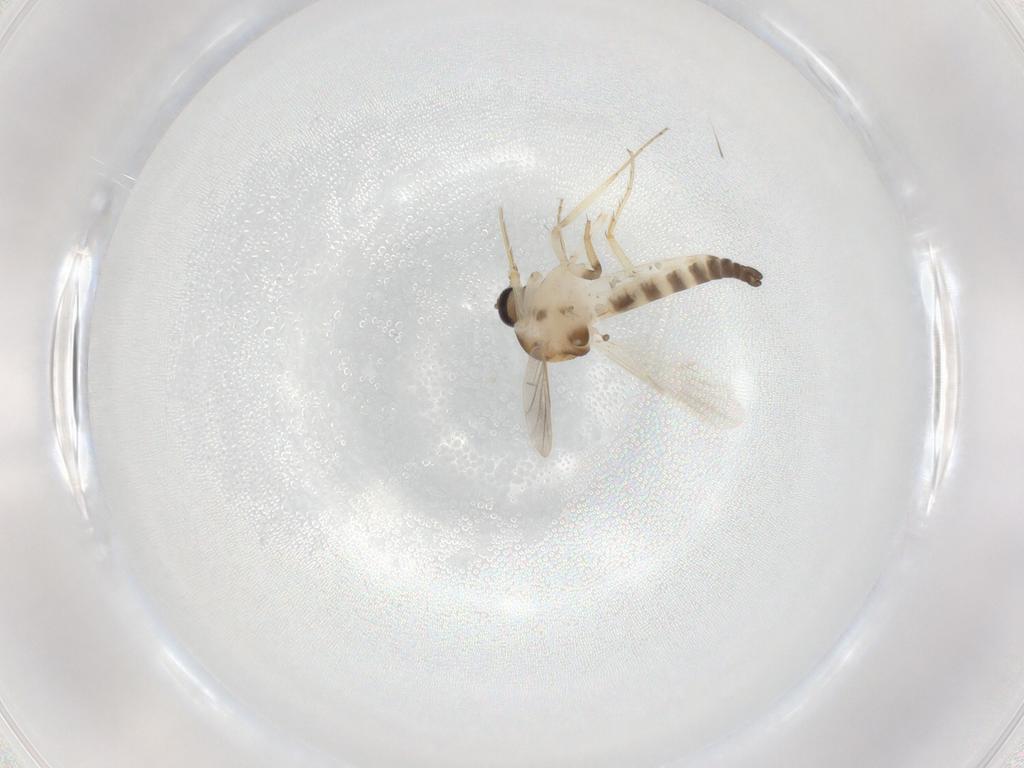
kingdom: Animalia
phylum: Arthropoda
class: Insecta
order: Diptera
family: Ceratopogonidae
